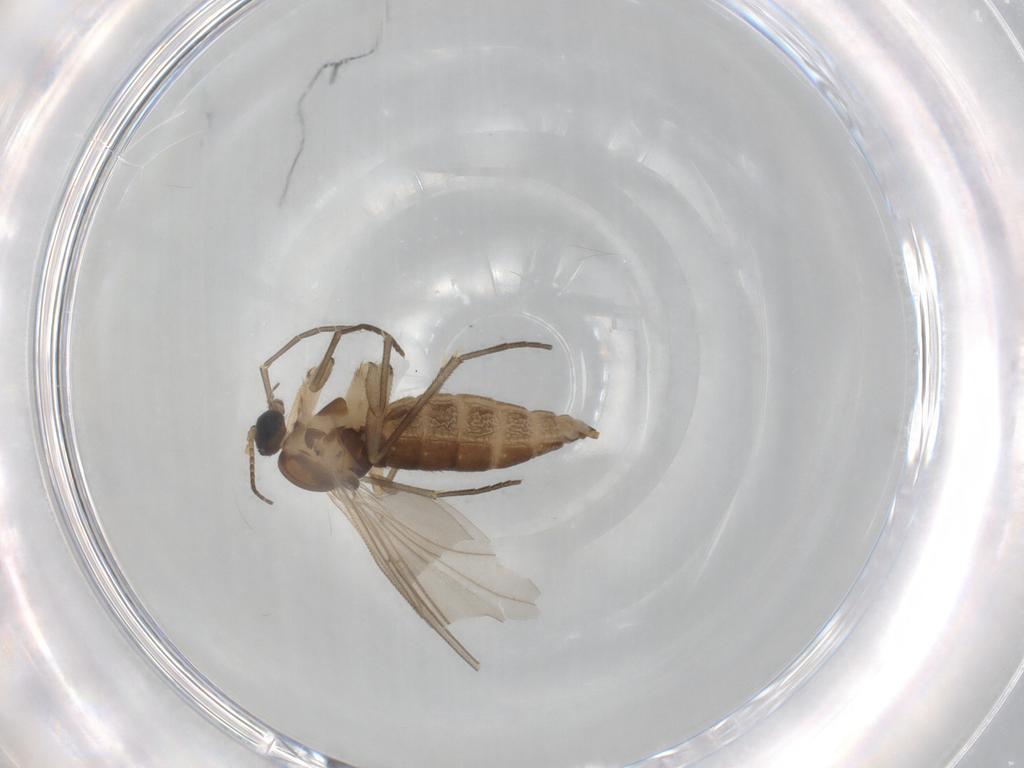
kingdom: Animalia
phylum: Arthropoda
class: Insecta
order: Diptera
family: Sciaridae
